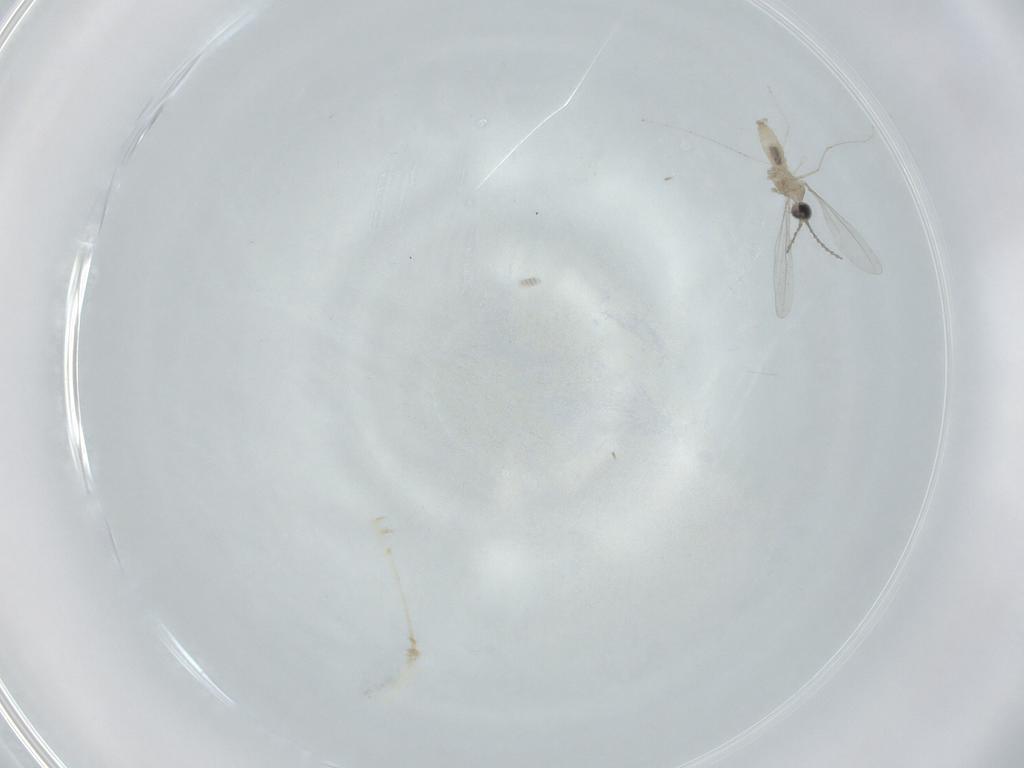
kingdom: Animalia
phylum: Arthropoda
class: Insecta
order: Diptera
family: Cecidomyiidae
